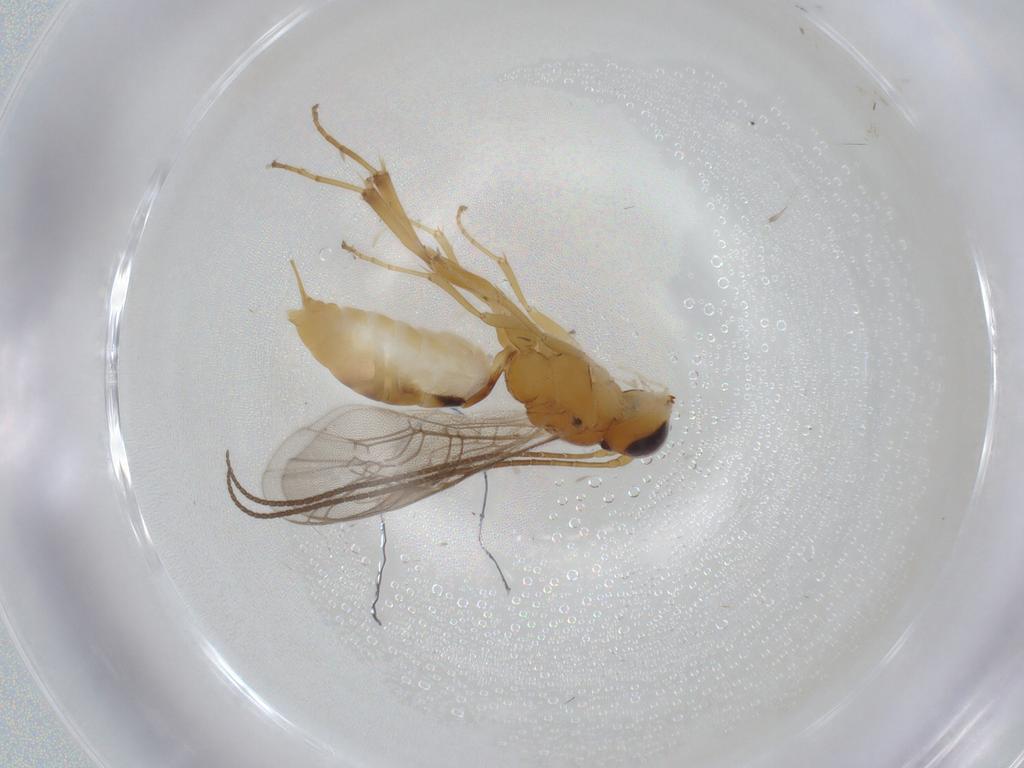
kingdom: Animalia
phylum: Arthropoda
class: Insecta
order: Hymenoptera
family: Ichneumonidae
